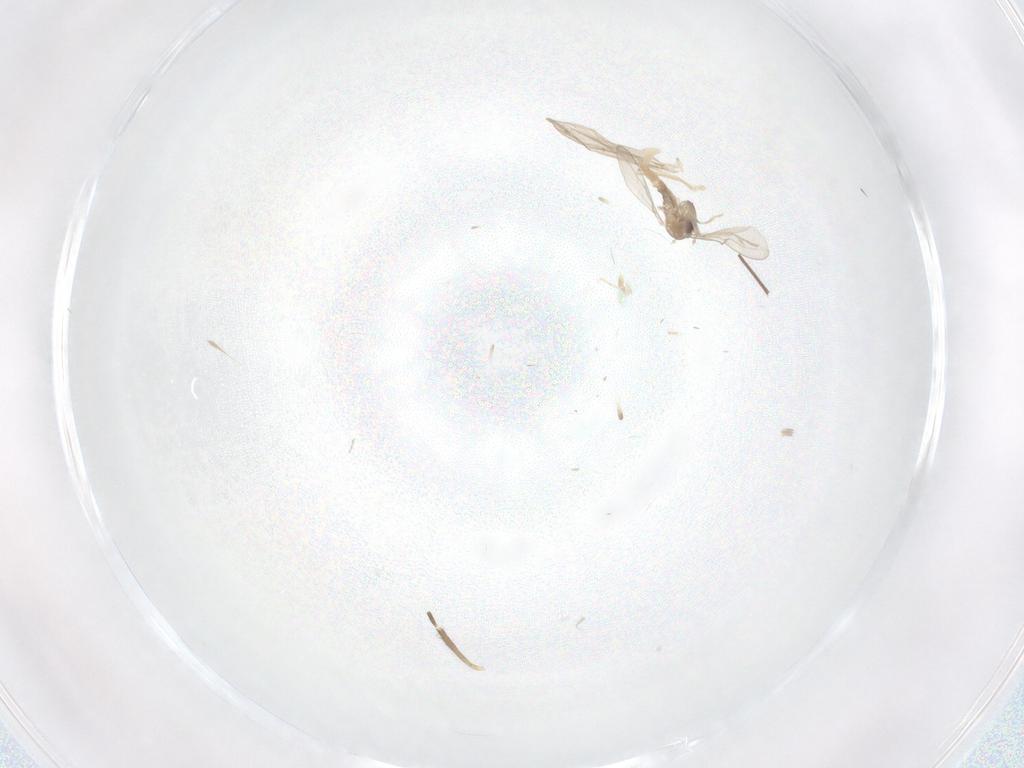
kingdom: Animalia
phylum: Arthropoda
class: Insecta
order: Diptera
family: Cecidomyiidae
